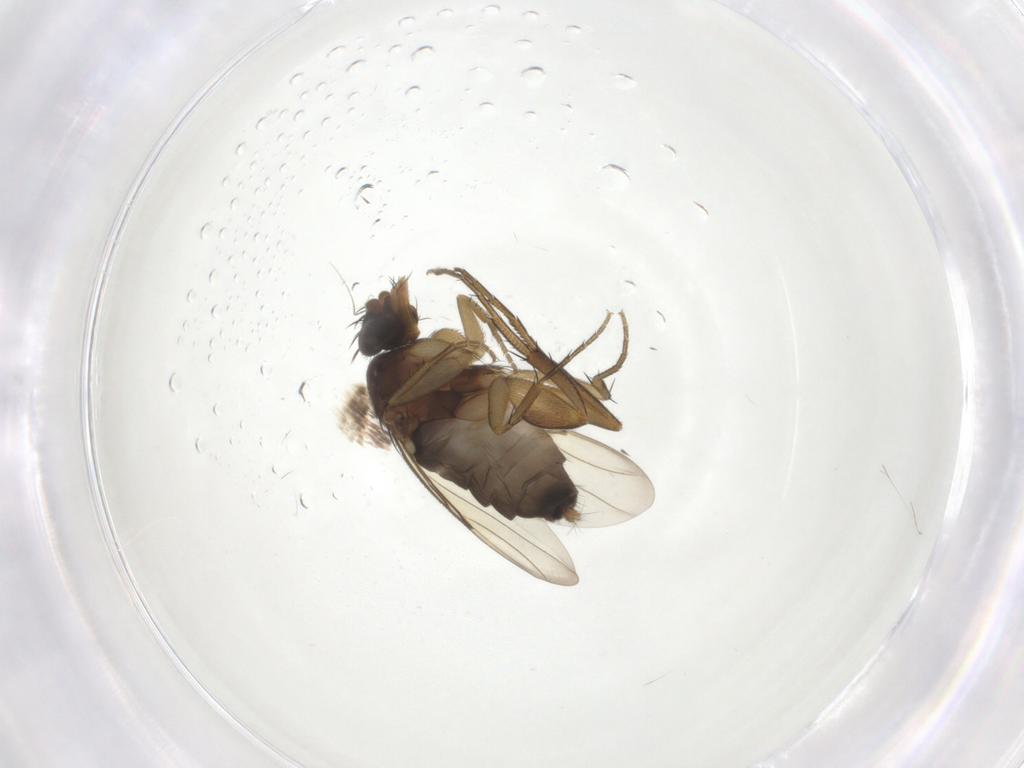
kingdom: Animalia
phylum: Arthropoda
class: Insecta
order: Diptera
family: Phoridae
